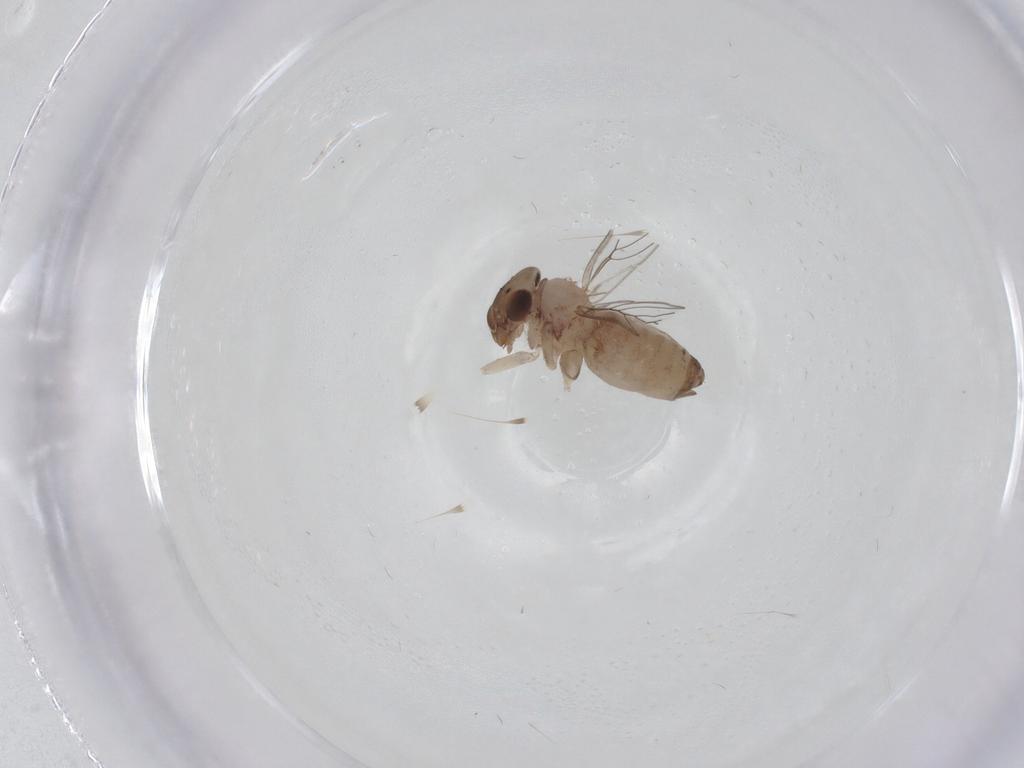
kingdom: Animalia
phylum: Arthropoda
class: Insecta
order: Psocodea
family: Lepidopsocidae
